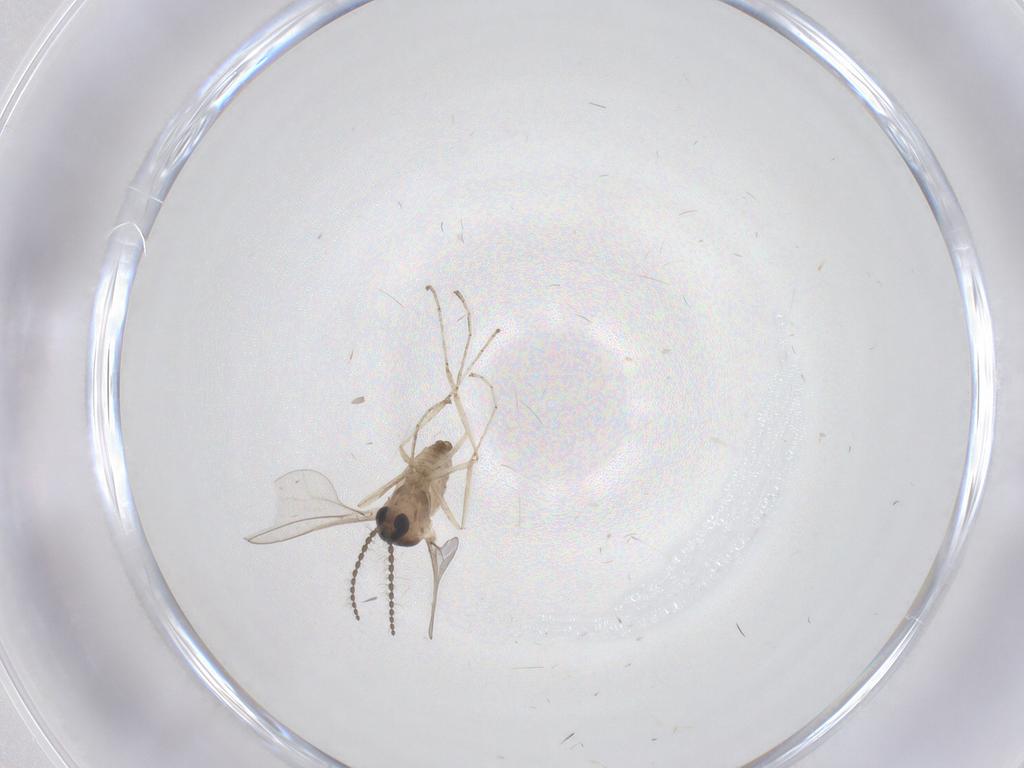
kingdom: Animalia
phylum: Arthropoda
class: Insecta
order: Diptera
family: Cecidomyiidae
